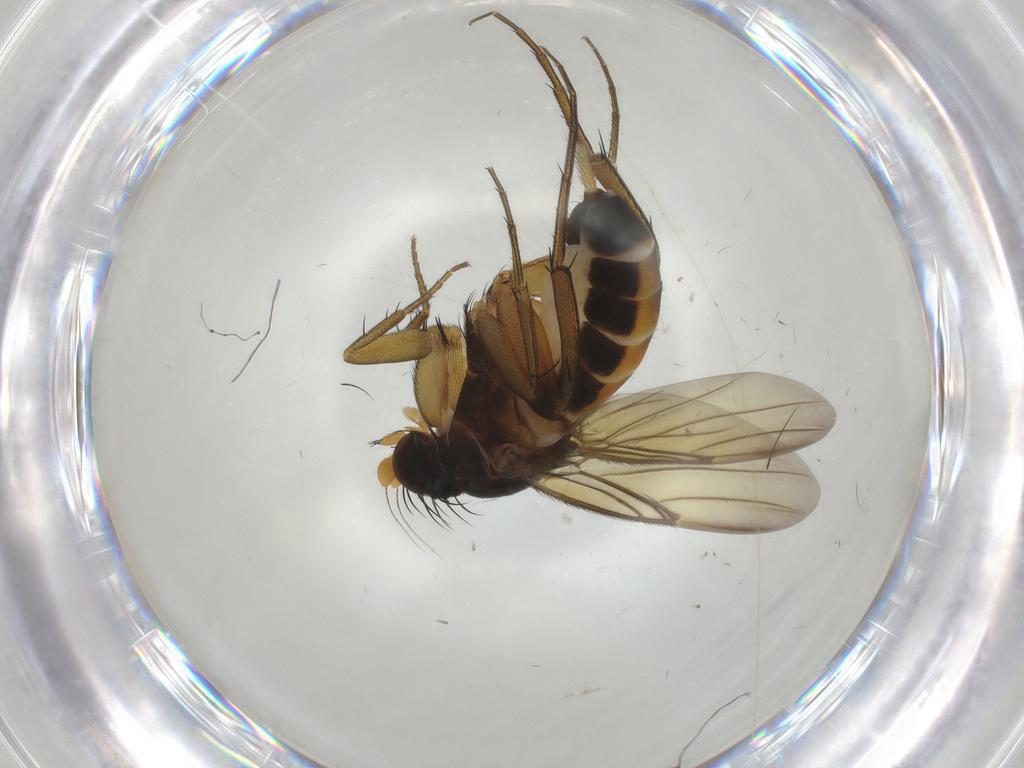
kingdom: Animalia
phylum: Arthropoda
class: Insecta
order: Diptera
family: Phoridae
